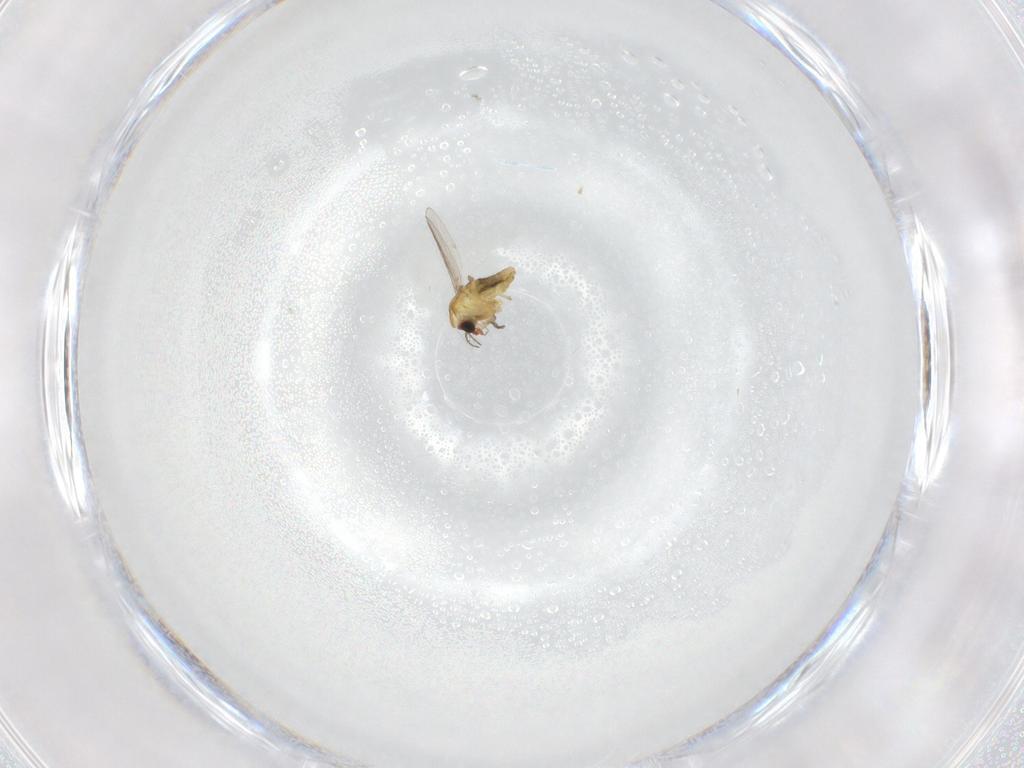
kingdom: Animalia
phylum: Arthropoda
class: Insecta
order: Diptera
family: Chironomidae
